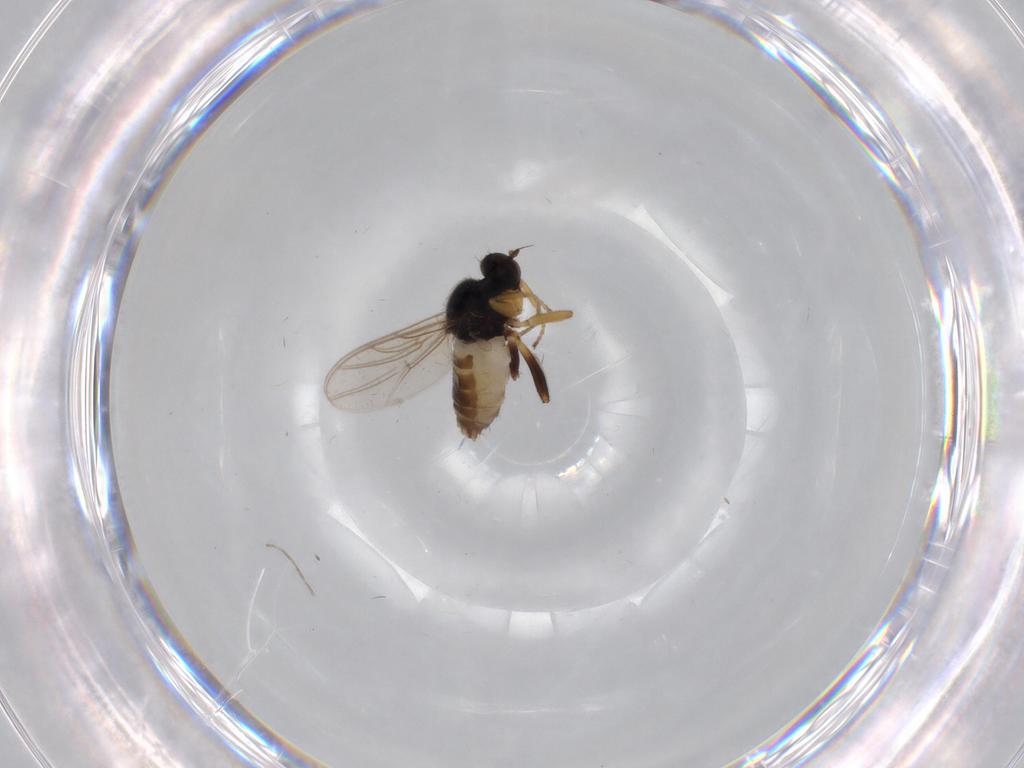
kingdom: Animalia
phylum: Arthropoda
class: Insecta
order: Diptera
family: Hybotidae
